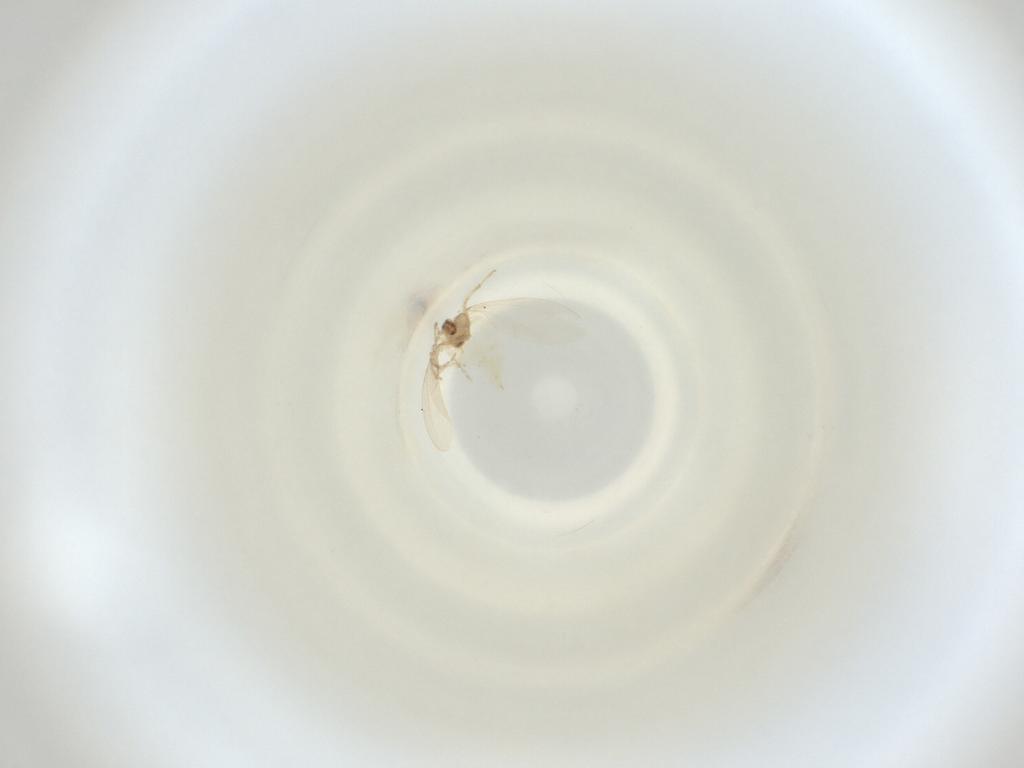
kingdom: Animalia
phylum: Arthropoda
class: Insecta
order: Diptera
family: Cecidomyiidae
